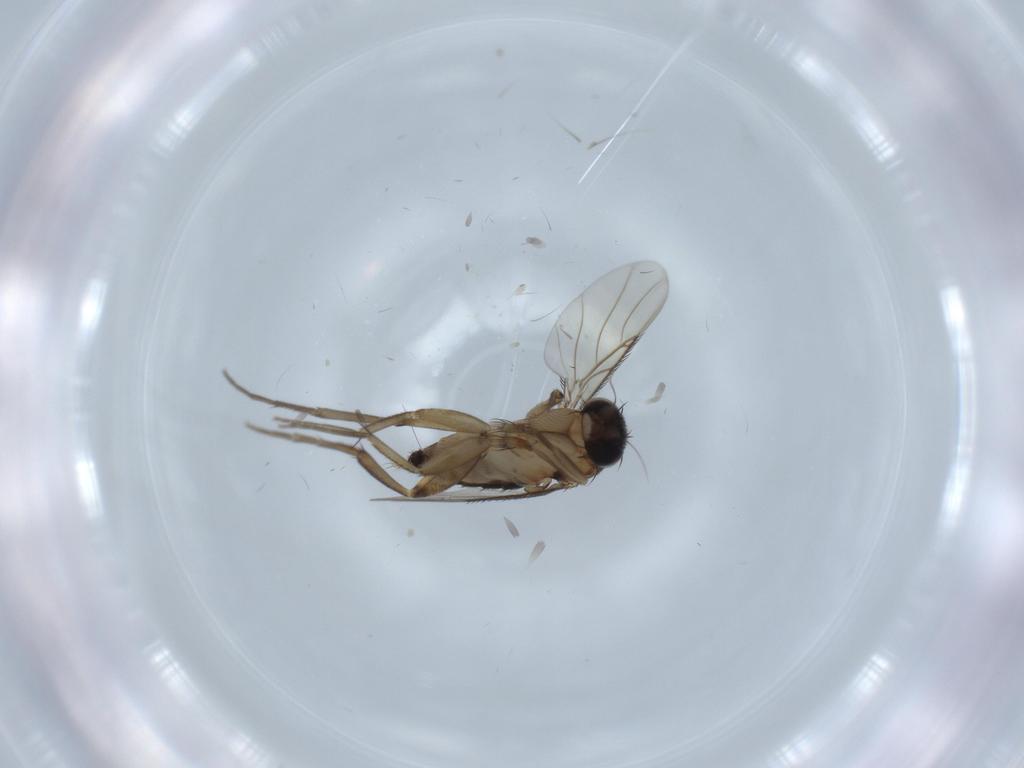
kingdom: Animalia
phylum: Arthropoda
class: Insecta
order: Diptera
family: Phoridae
